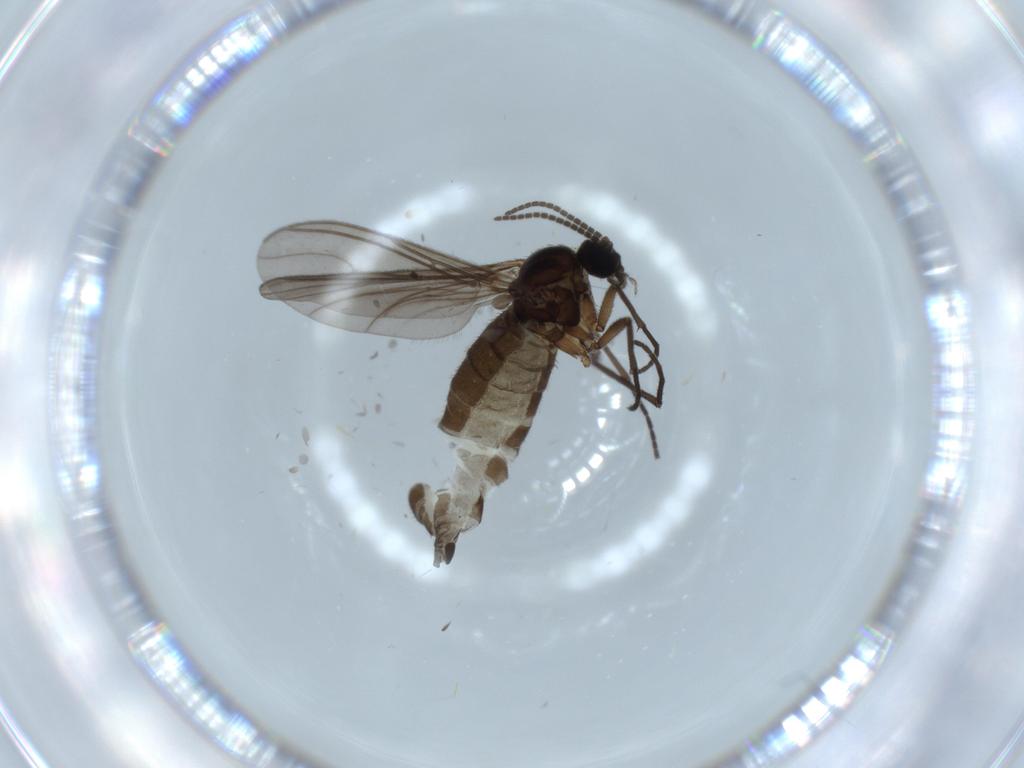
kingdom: Animalia
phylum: Arthropoda
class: Insecta
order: Diptera
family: Sciaridae
